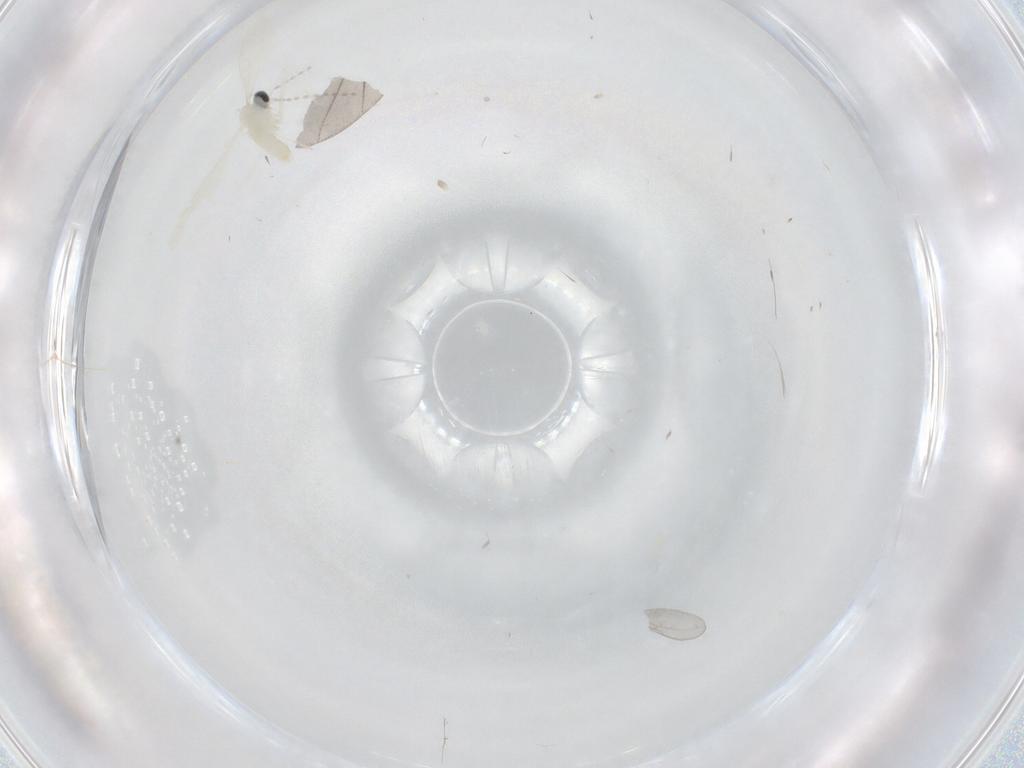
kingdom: Animalia
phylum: Arthropoda
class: Insecta
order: Diptera
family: Cecidomyiidae
